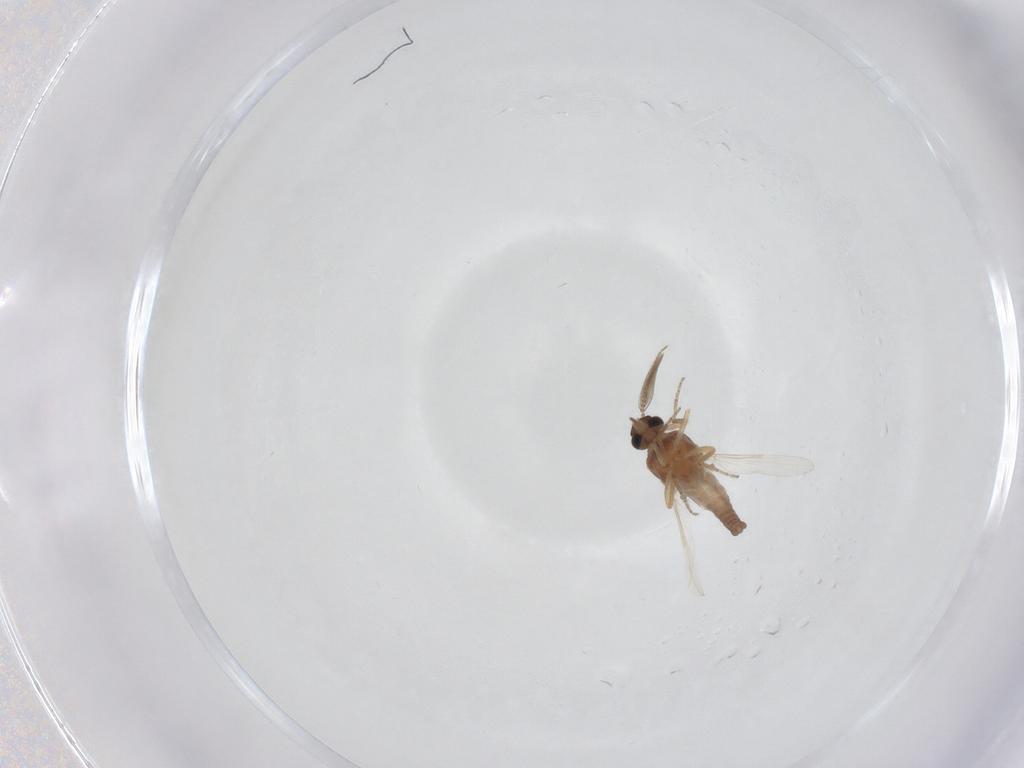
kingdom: Animalia
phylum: Arthropoda
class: Insecta
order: Diptera
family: Ceratopogonidae
